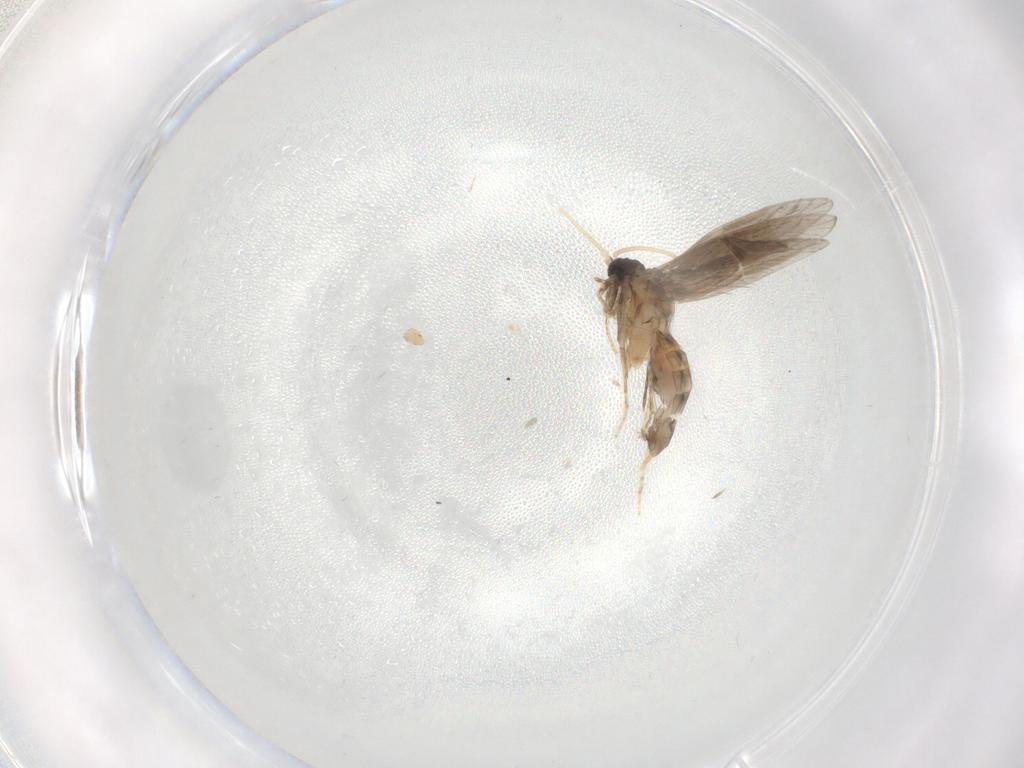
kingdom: Animalia
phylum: Arthropoda
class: Insecta
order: Trichoptera
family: Hydroptilidae
